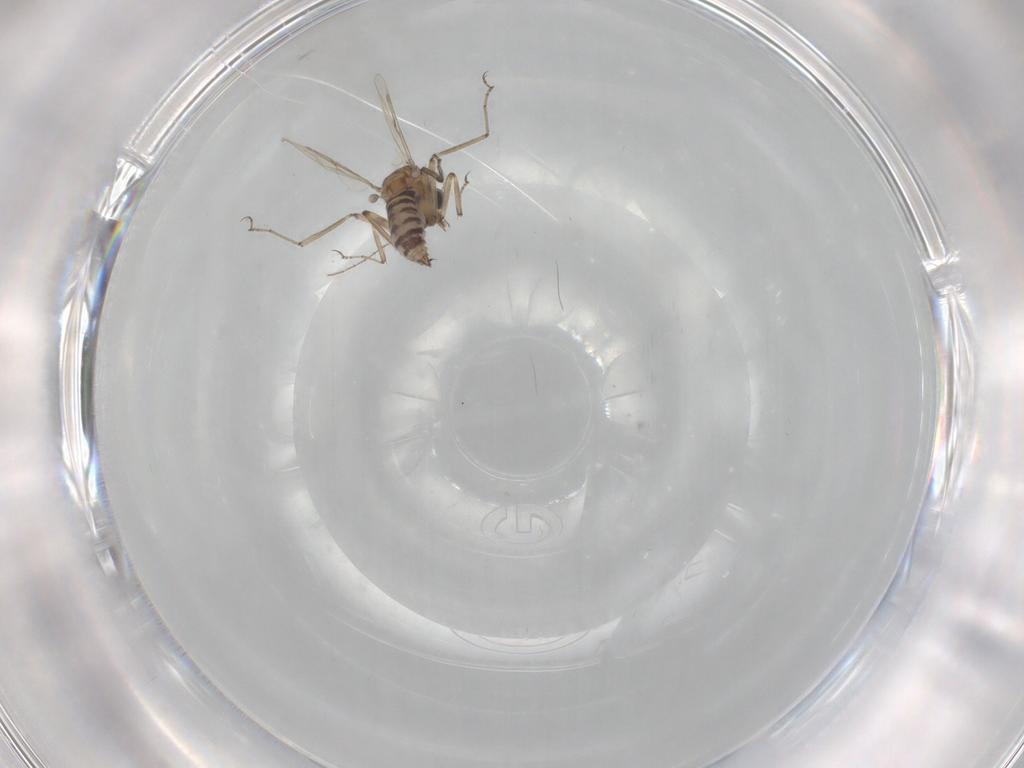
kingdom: Animalia
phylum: Arthropoda
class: Insecta
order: Diptera
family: Ceratopogonidae
